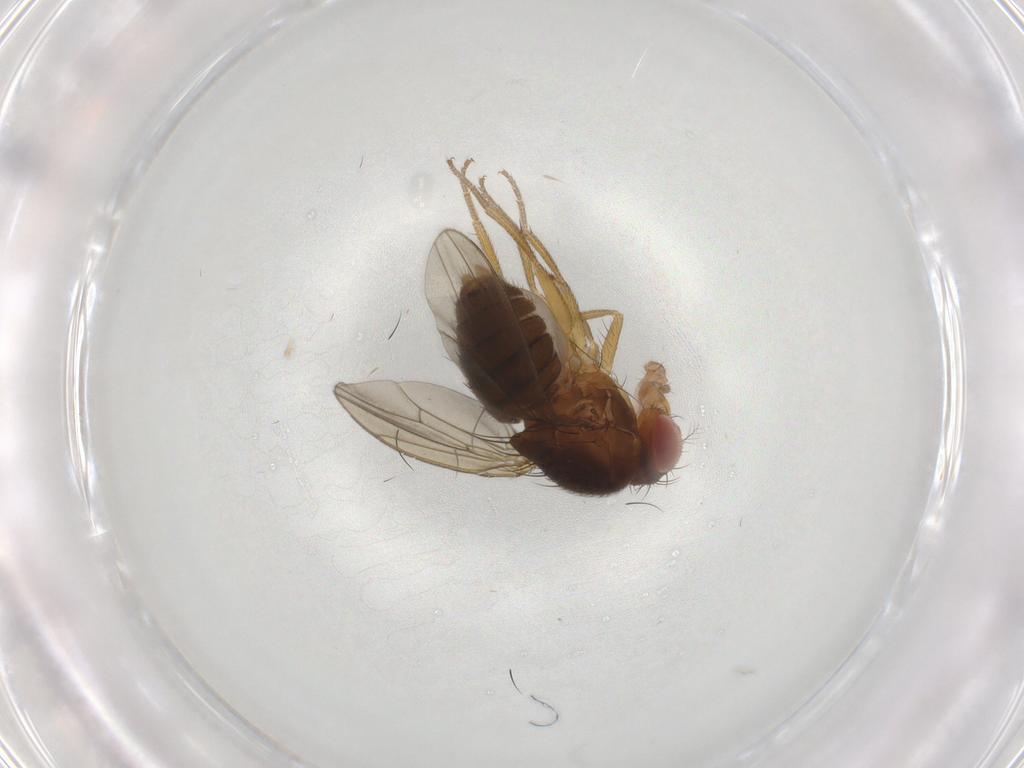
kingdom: Animalia
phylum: Arthropoda
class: Insecta
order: Diptera
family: Drosophilidae
